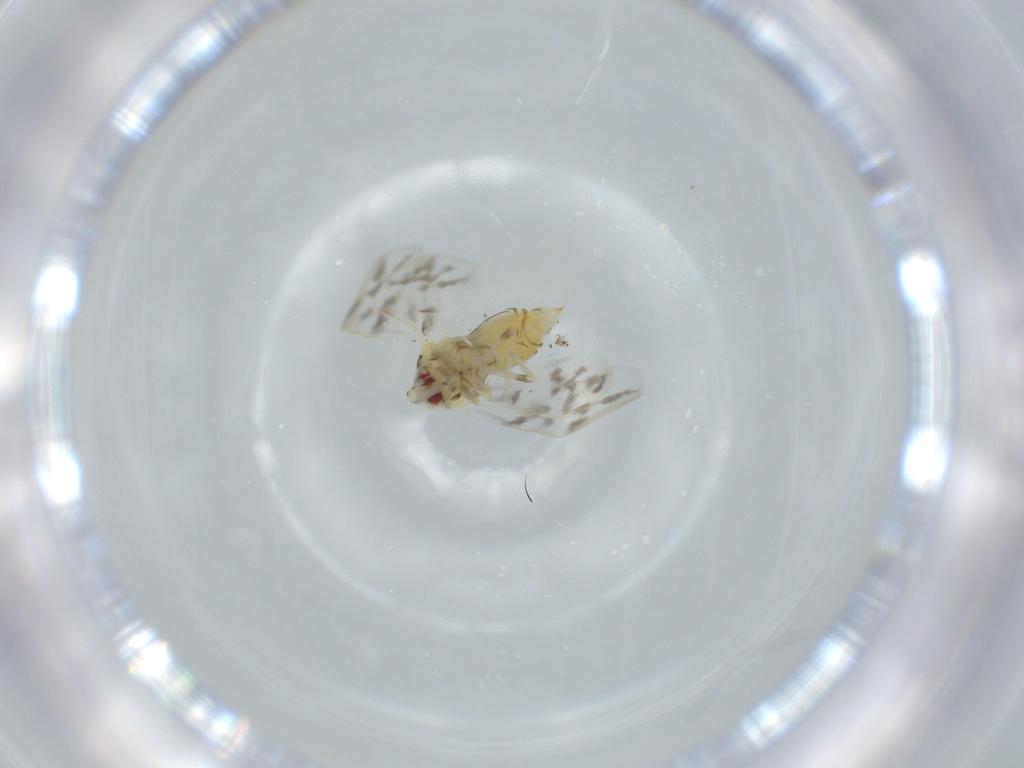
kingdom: Animalia
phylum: Arthropoda
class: Insecta
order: Hemiptera
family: Aleyrodidae
